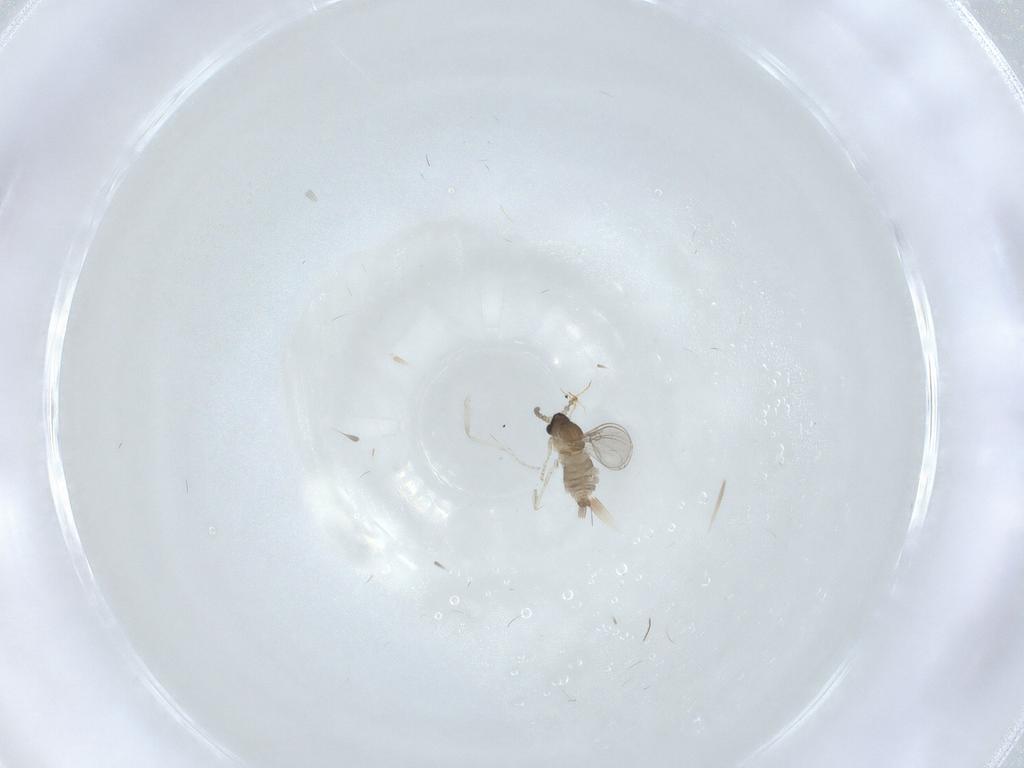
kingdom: Animalia
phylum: Arthropoda
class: Insecta
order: Diptera
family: Cecidomyiidae
